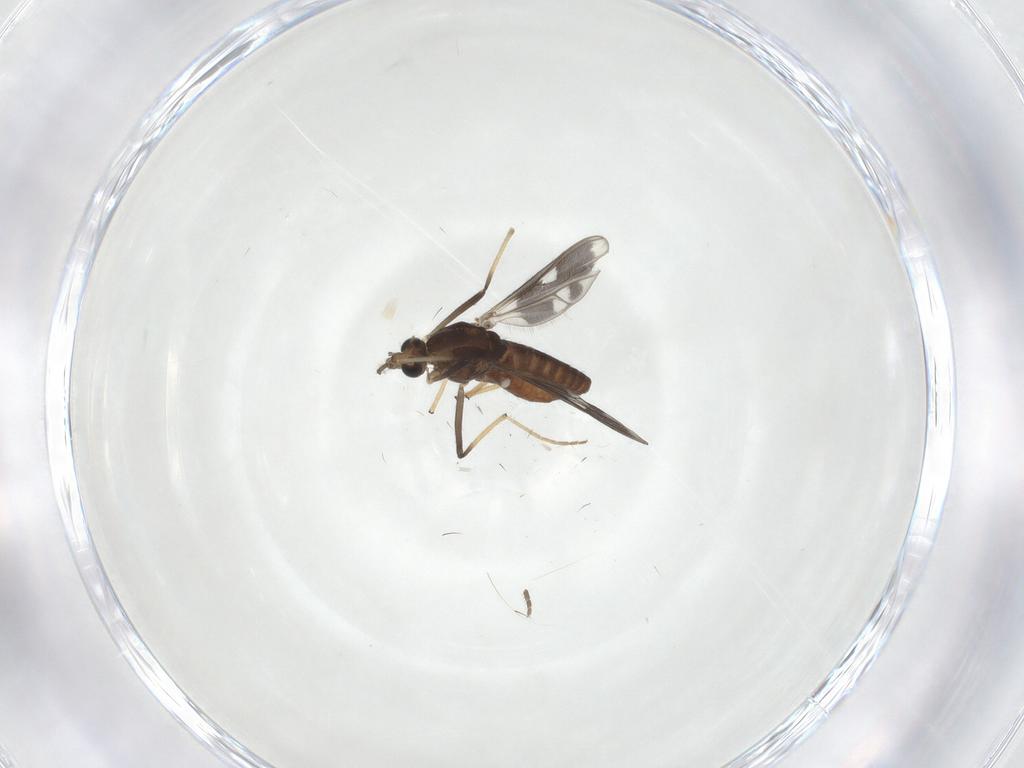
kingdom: Animalia
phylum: Arthropoda
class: Insecta
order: Diptera
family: Chironomidae
